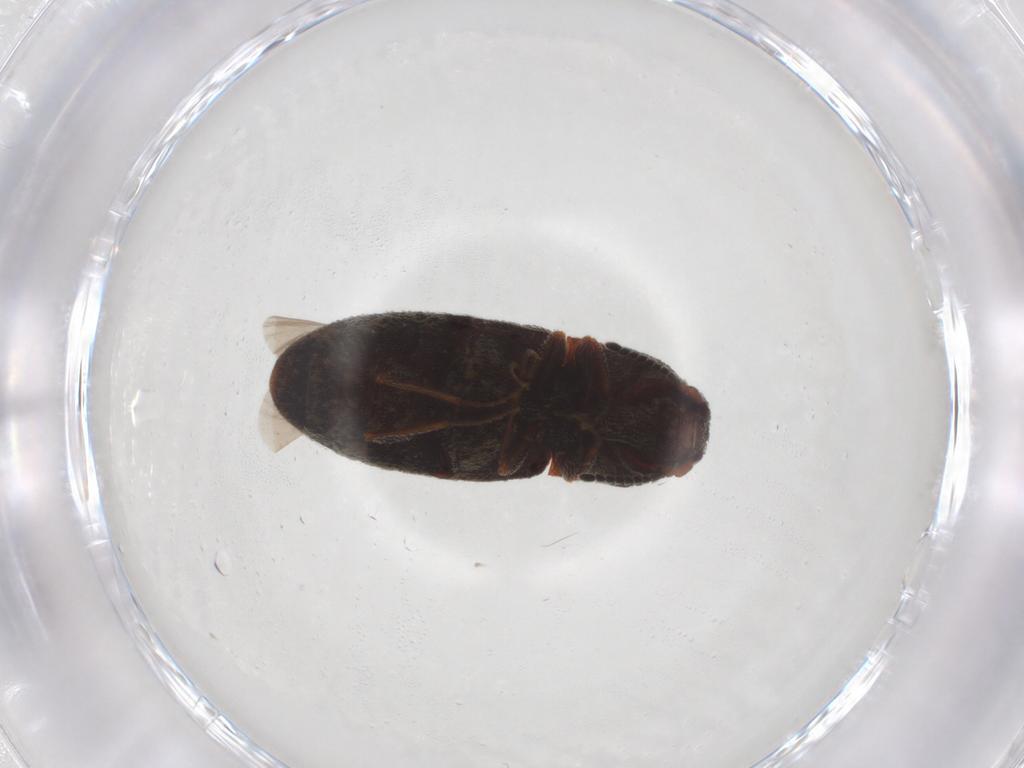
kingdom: Animalia
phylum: Arthropoda
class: Insecta
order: Coleoptera
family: Elateridae
